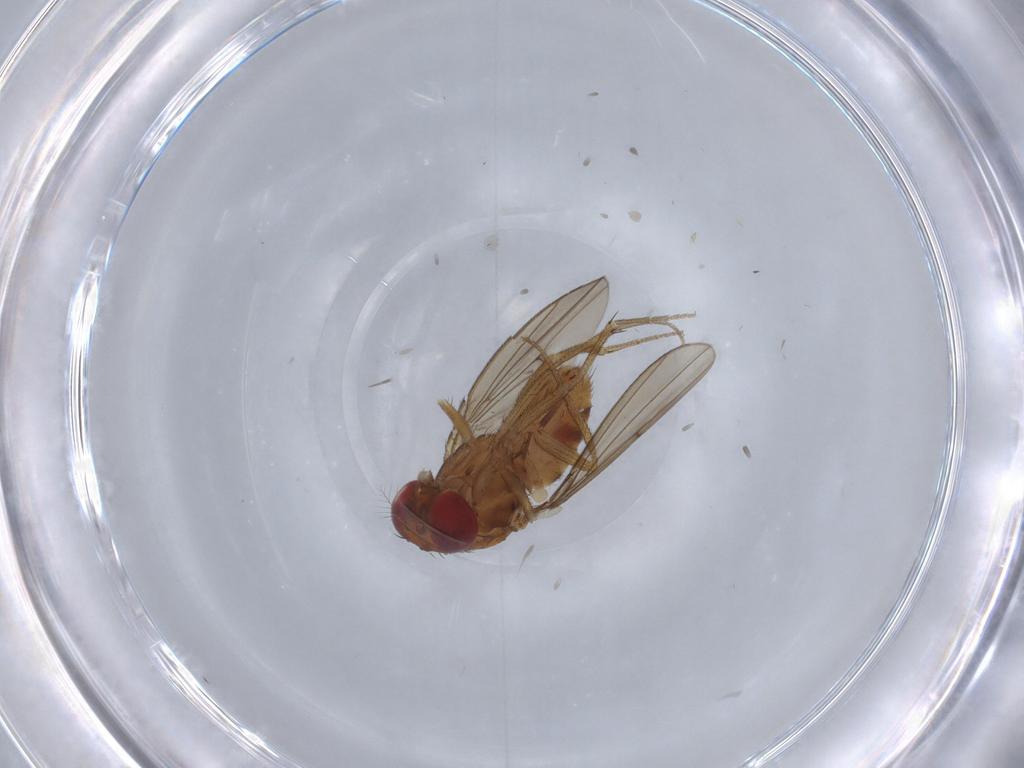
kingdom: Animalia
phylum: Arthropoda
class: Insecta
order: Diptera
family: Drosophilidae
